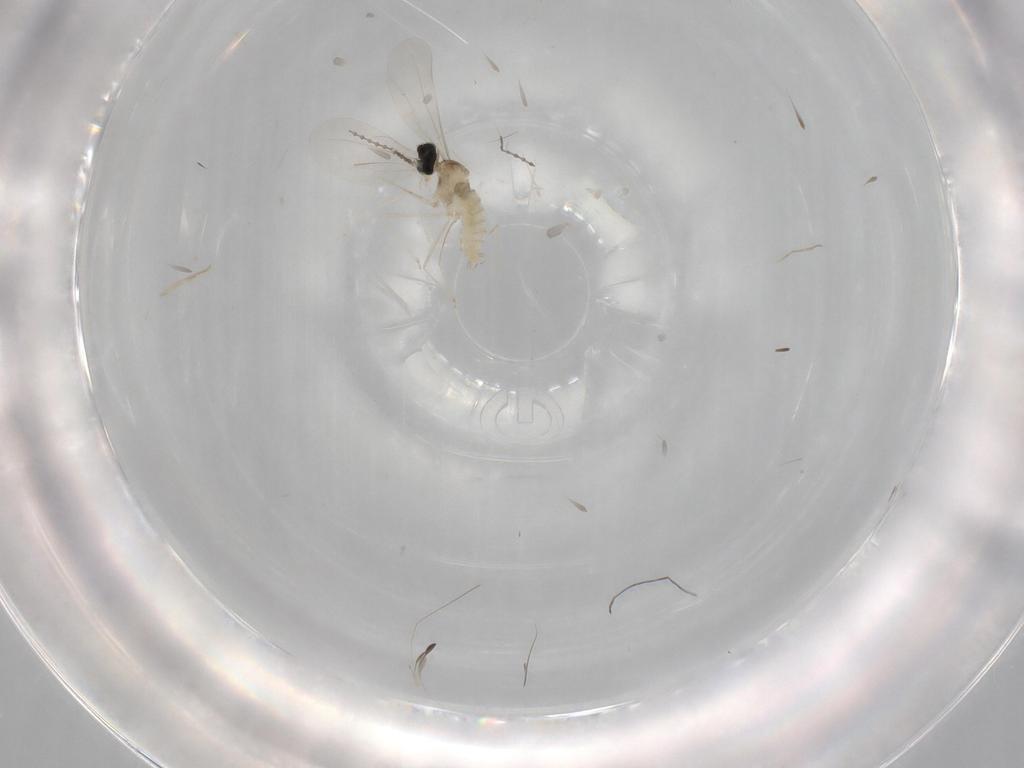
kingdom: Animalia
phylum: Arthropoda
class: Insecta
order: Diptera
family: Cecidomyiidae
